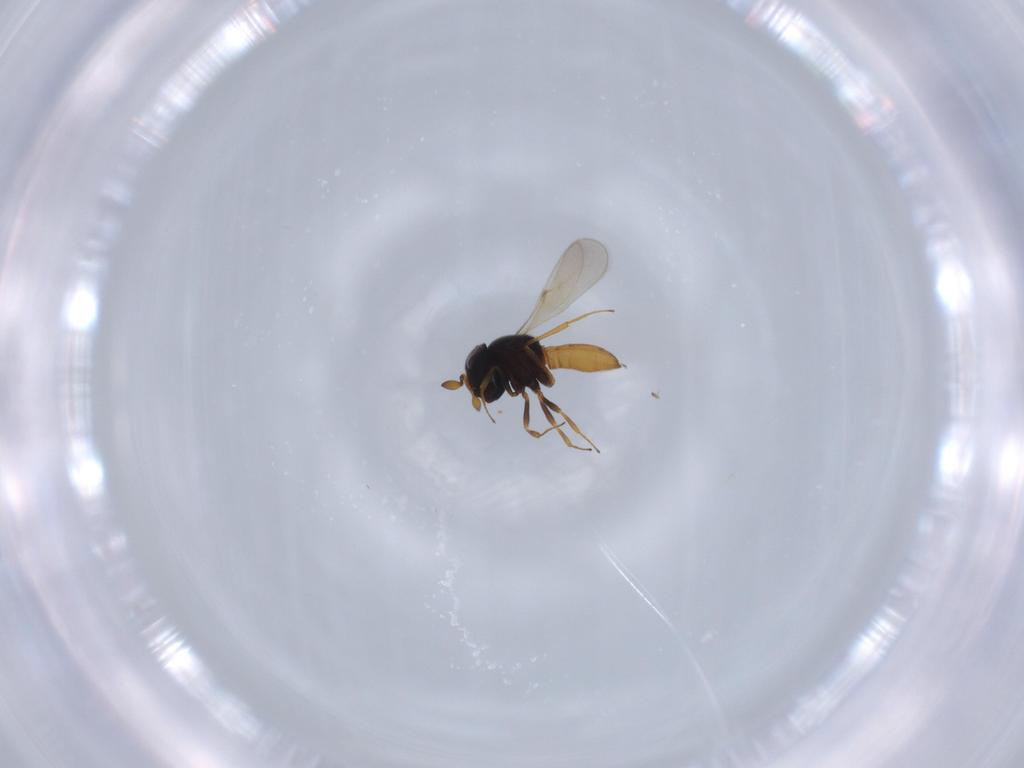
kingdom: Animalia
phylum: Arthropoda
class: Insecta
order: Hymenoptera
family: Scelionidae
